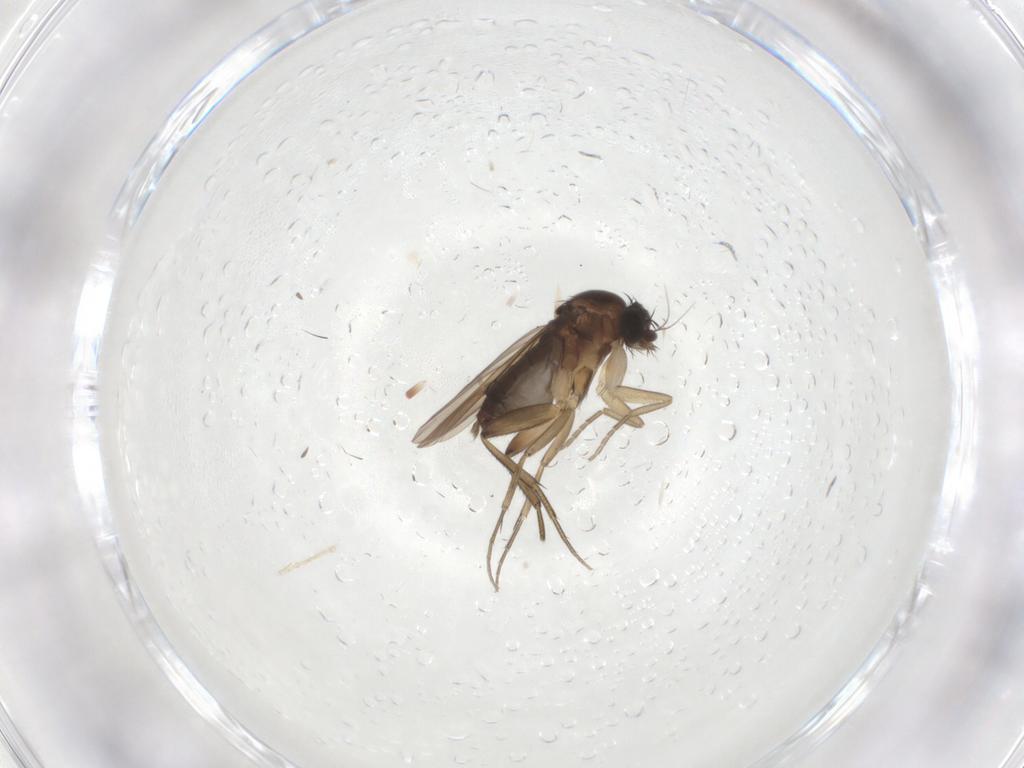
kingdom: Animalia
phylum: Arthropoda
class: Insecta
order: Diptera
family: Phoridae
